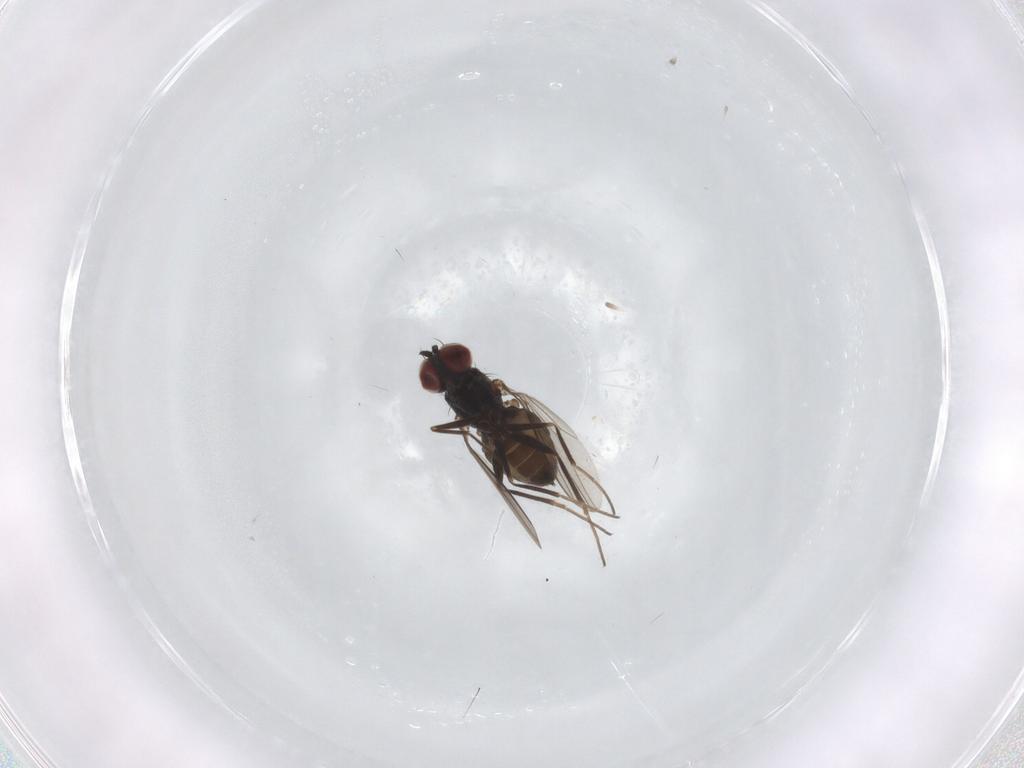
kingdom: Animalia
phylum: Arthropoda
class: Insecta
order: Diptera
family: Dolichopodidae
